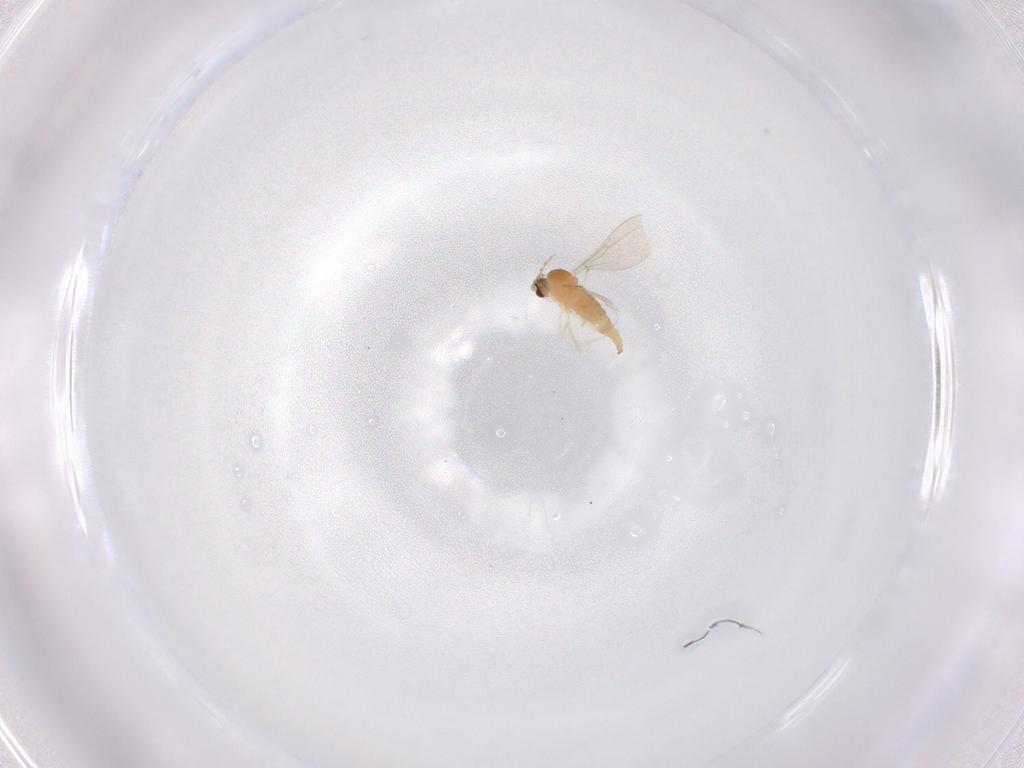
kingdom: Animalia
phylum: Arthropoda
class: Insecta
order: Diptera
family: Cecidomyiidae
